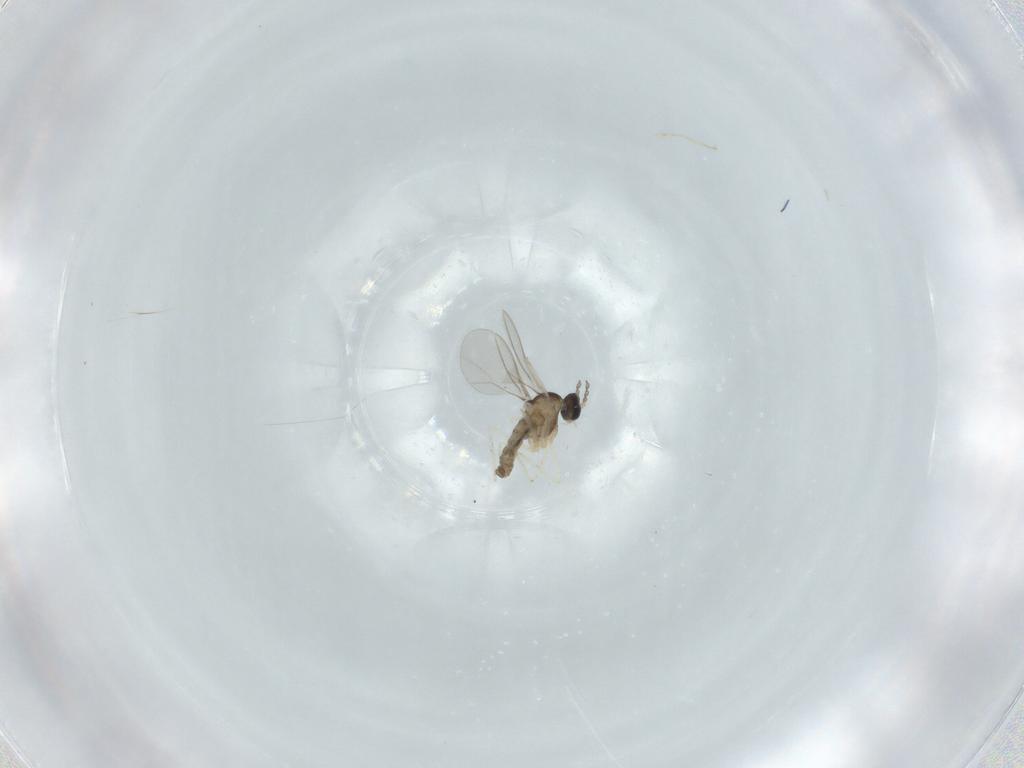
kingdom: Animalia
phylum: Arthropoda
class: Insecta
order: Diptera
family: Cecidomyiidae
